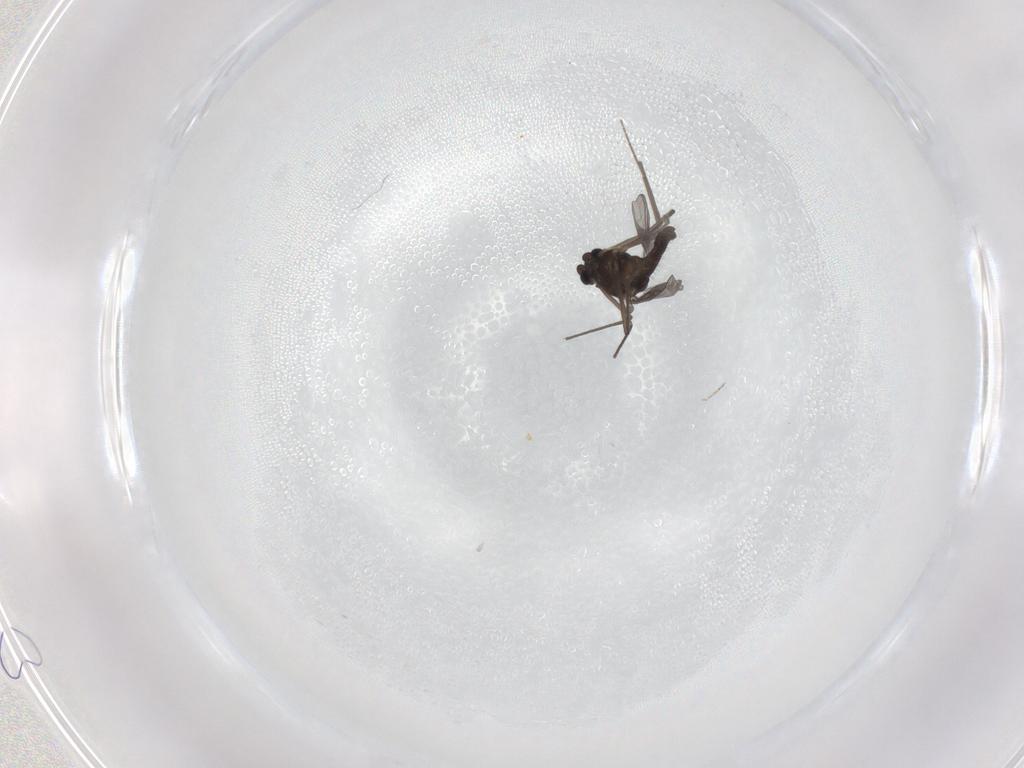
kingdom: Animalia
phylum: Arthropoda
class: Insecta
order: Diptera
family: Chironomidae
